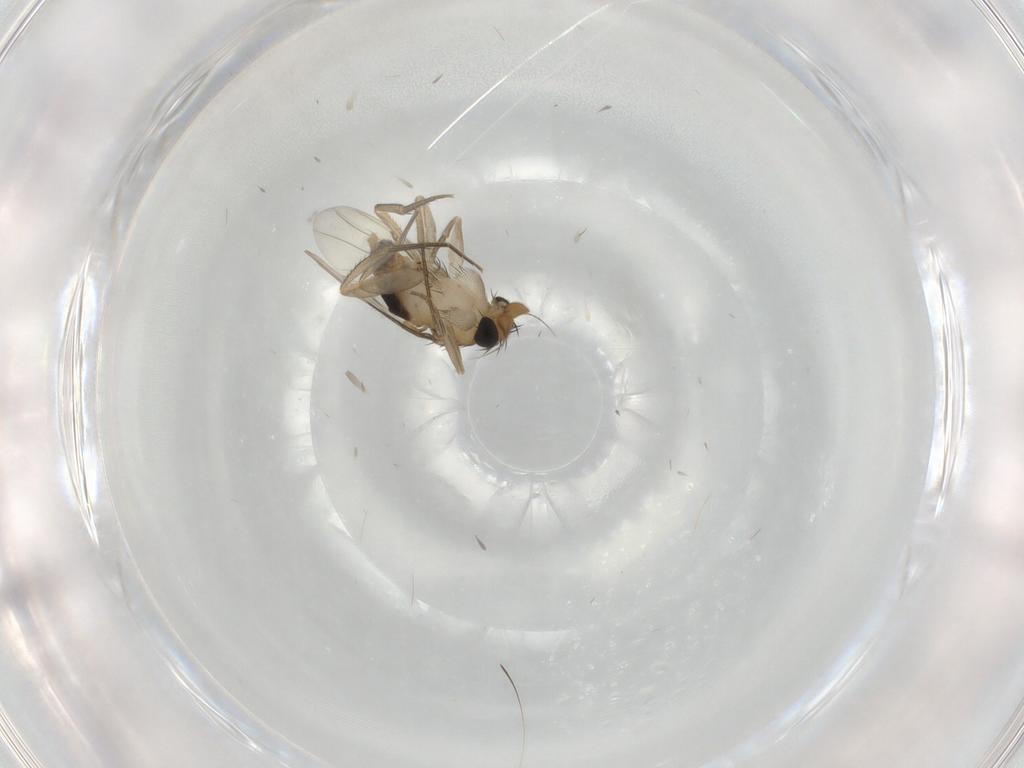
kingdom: Animalia
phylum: Arthropoda
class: Insecta
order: Diptera
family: Phoridae
